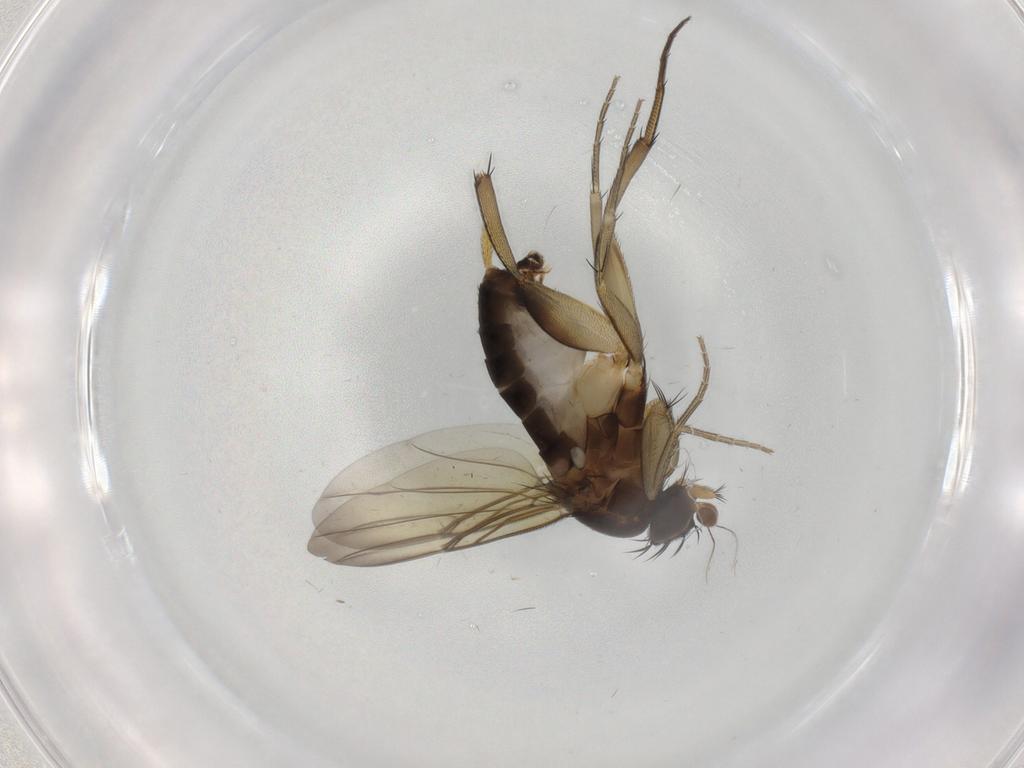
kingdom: Animalia
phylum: Arthropoda
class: Insecta
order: Diptera
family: Phoridae
